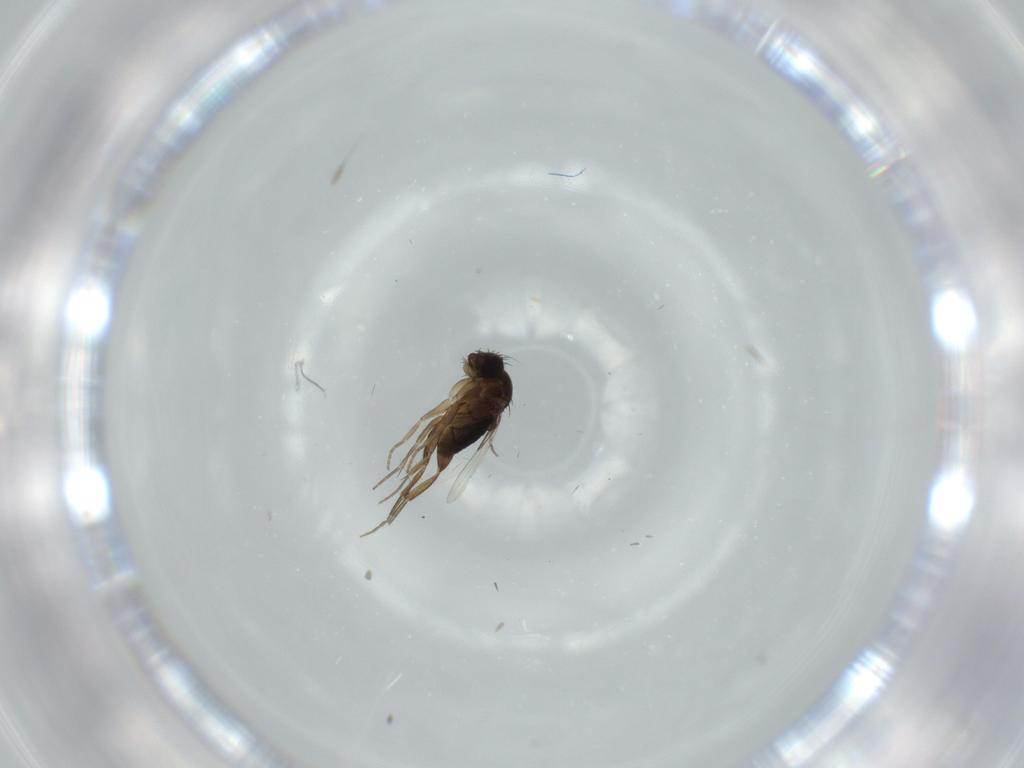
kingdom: Animalia
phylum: Arthropoda
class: Insecta
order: Diptera
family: Phoridae
